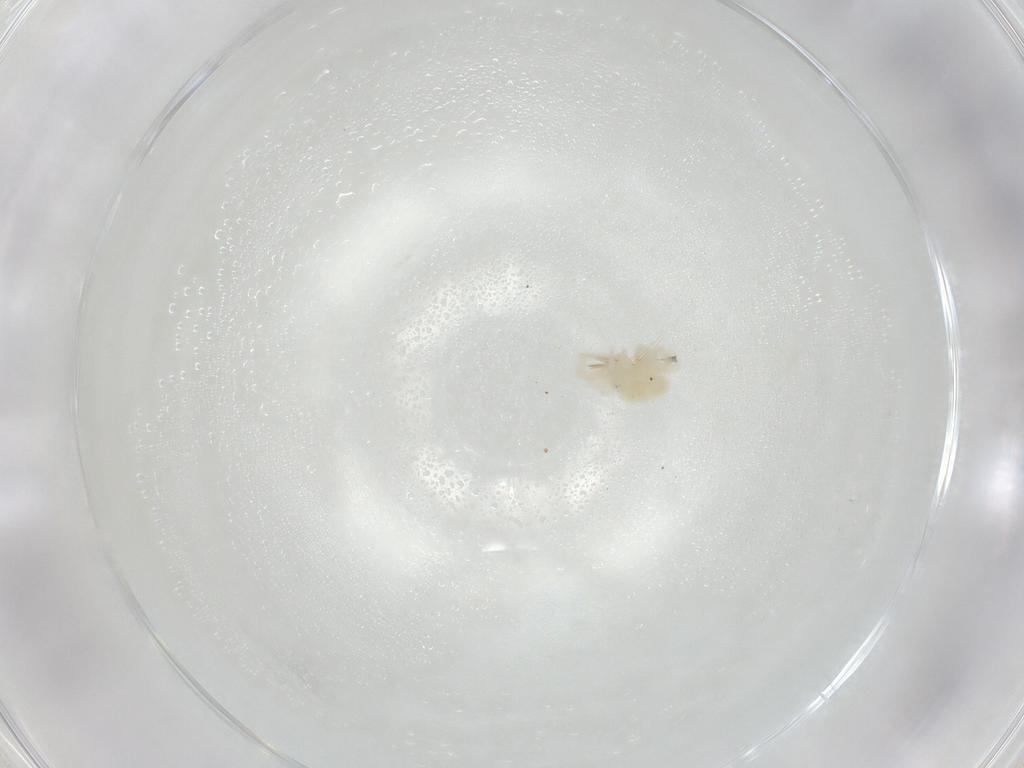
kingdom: Animalia
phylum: Arthropoda
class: Arachnida
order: Trombidiformes
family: Anystidae
